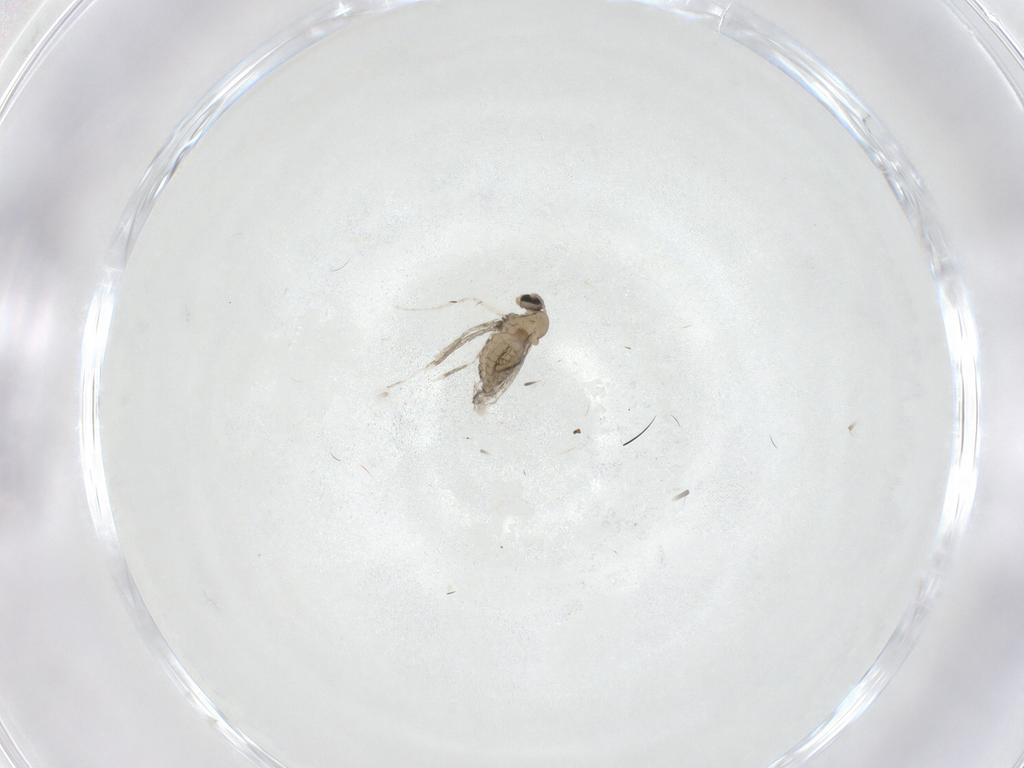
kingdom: Animalia
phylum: Arthropoda
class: Insecta
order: Diptera
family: Chironomidae
